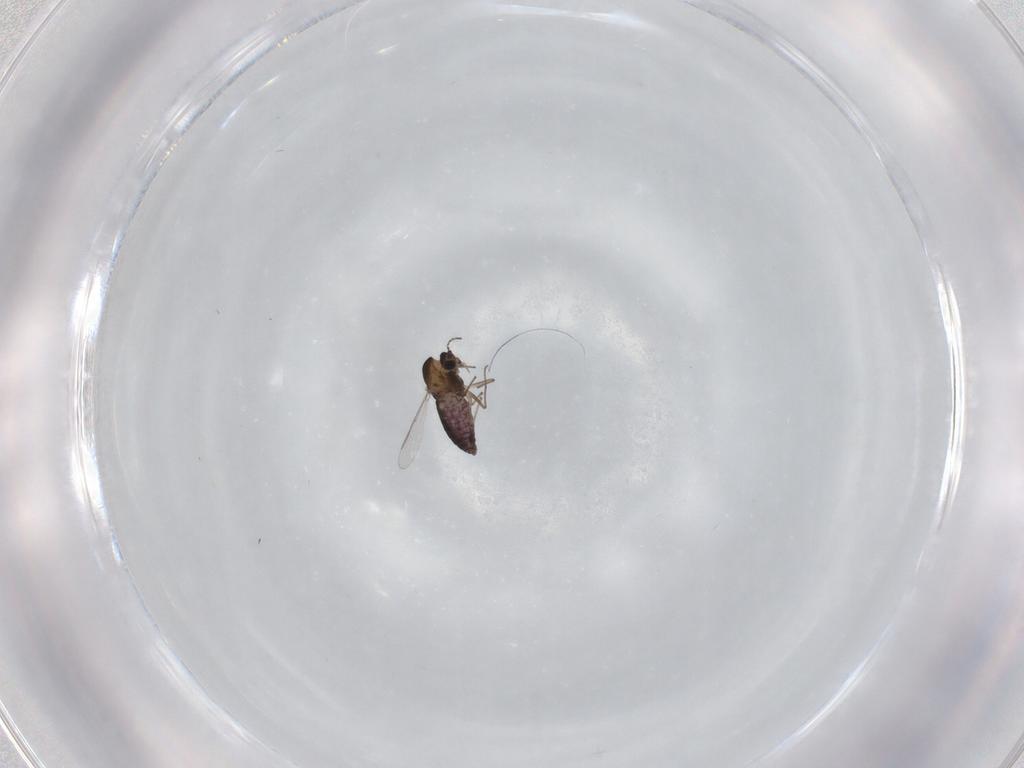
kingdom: Animalia
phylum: Arthropoda
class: Insecta
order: Diptera
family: Chironomidae
